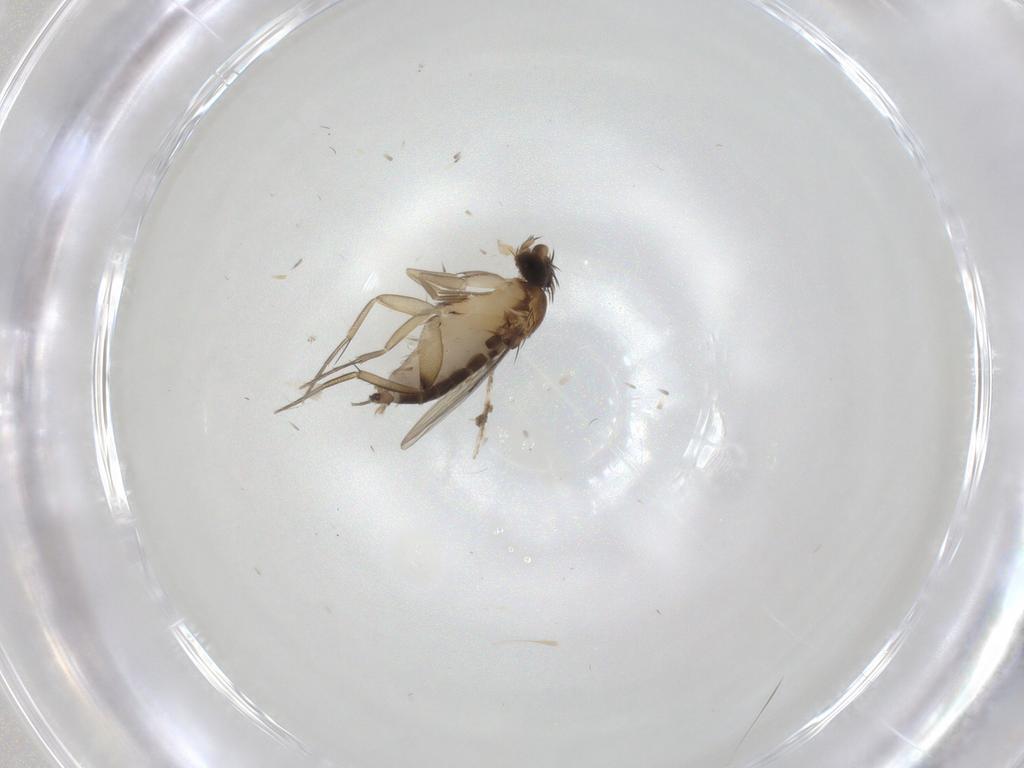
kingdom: Animalia
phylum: Arthropoda
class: Insecta
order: Diptera
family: Phoridae
